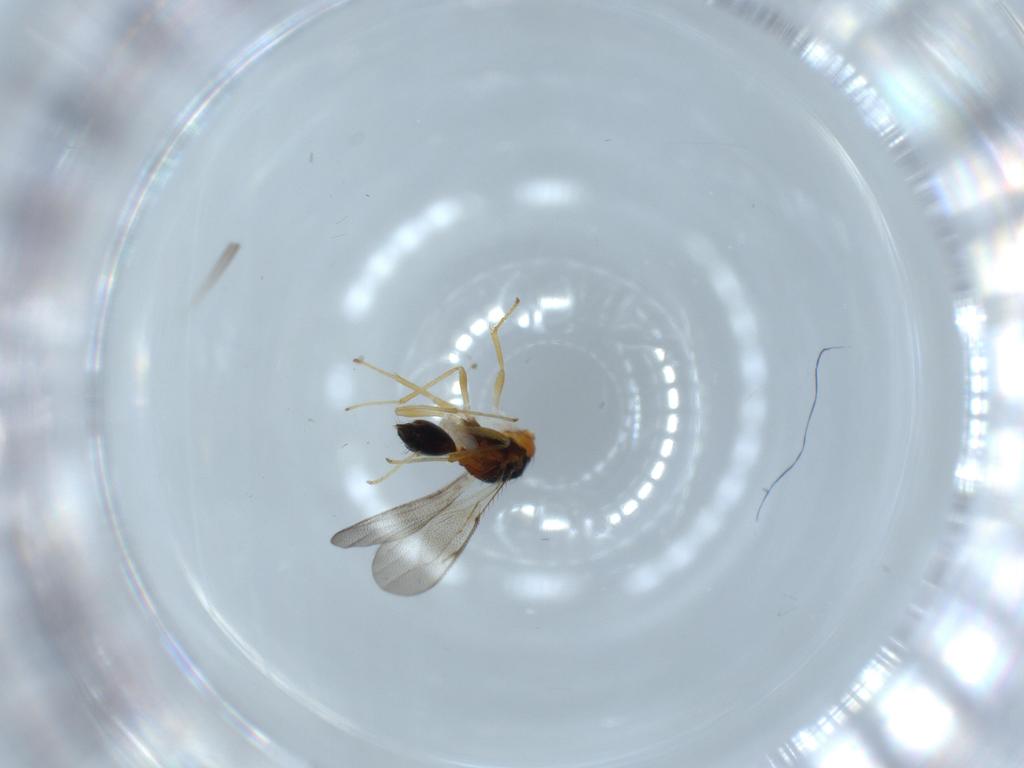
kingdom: Animalia
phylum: Arthropoda
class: Insecta
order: Hymenoptera
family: Diparidae
